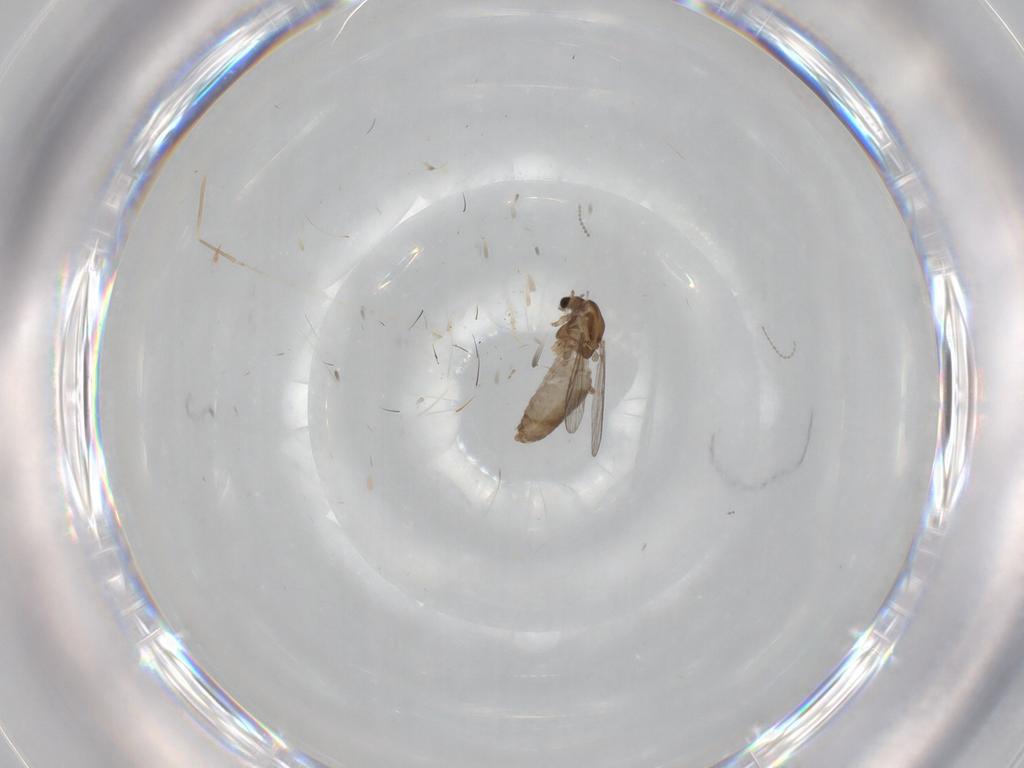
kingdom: Animalia
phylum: Arthropoda
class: Insecta
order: Diptera
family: Chironomidae
